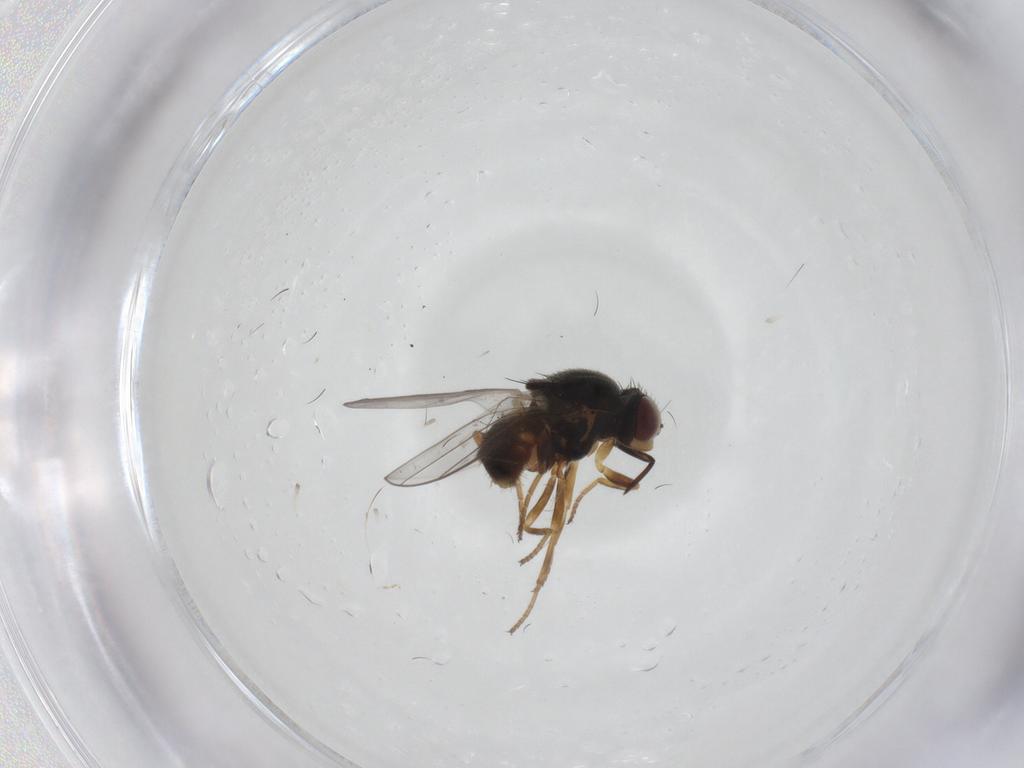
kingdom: Animalia
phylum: Arthropoda
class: Insecta
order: Diptera
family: Chloropidae
